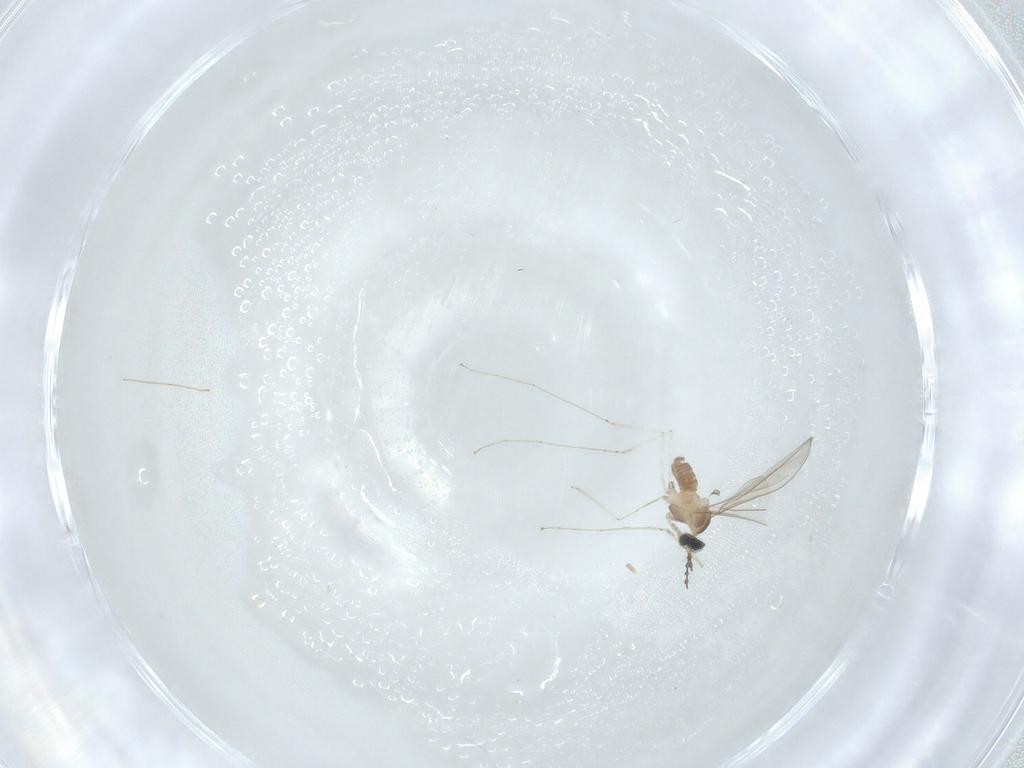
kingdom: Animalia
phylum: Arthropoda
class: Insecta
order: Diptera
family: Cecidomyiidae
